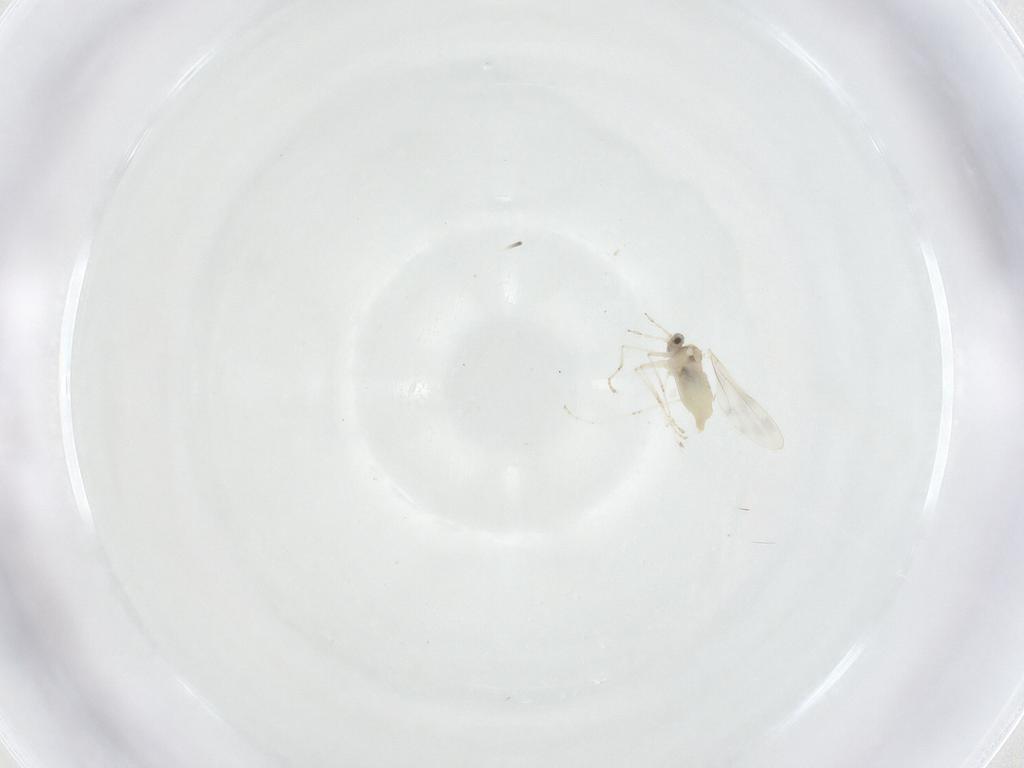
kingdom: Animalia
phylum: Arthropoda
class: Insecta
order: Diptera
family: Cecidomyiidae
